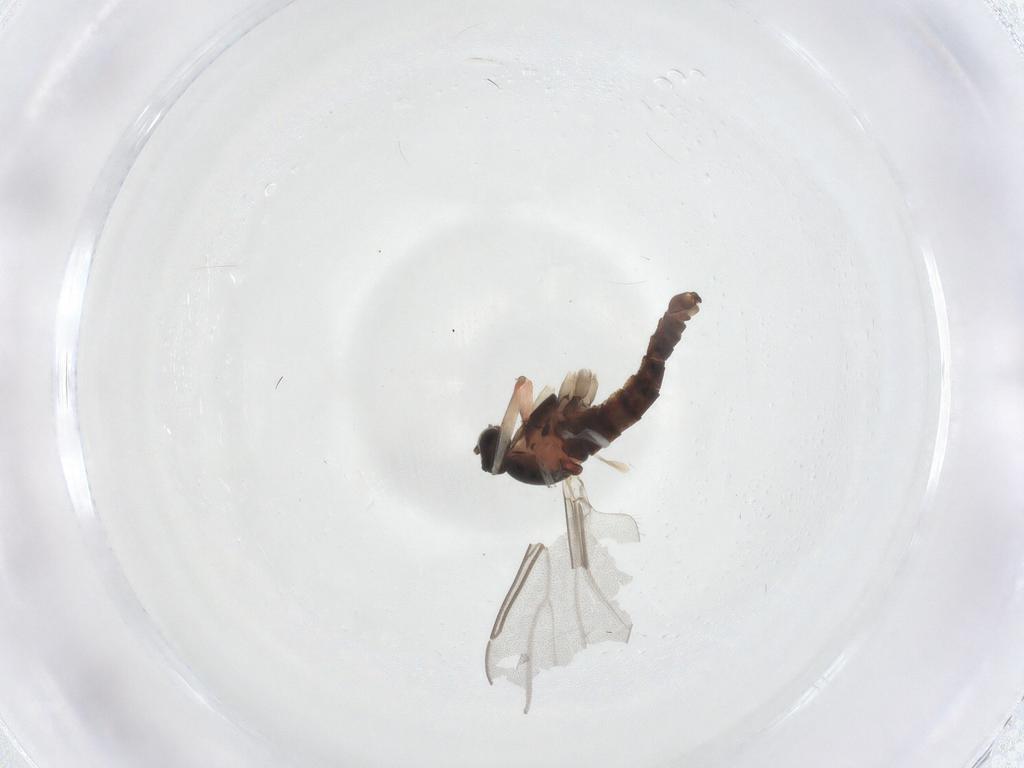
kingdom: Animalia
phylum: Arthropoda
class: Insecta
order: Diptera
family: Cecidomyiidae
